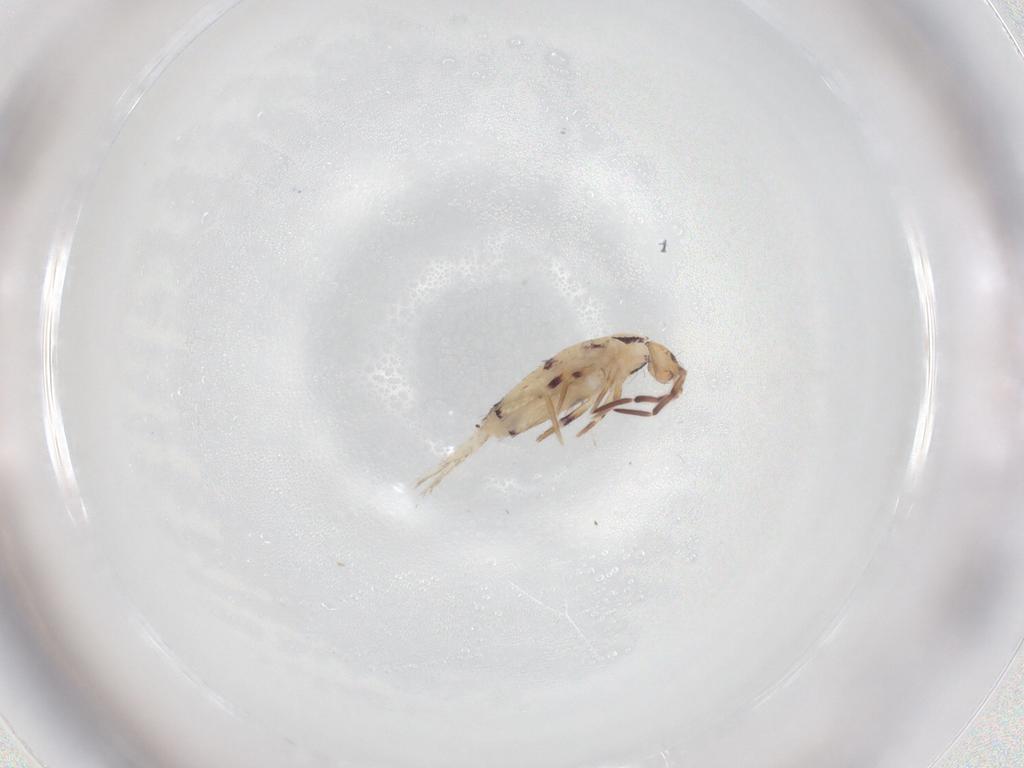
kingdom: Animalia
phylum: Arthropoda
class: Collembola
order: Entomobryomorpha
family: Entomobryidae
